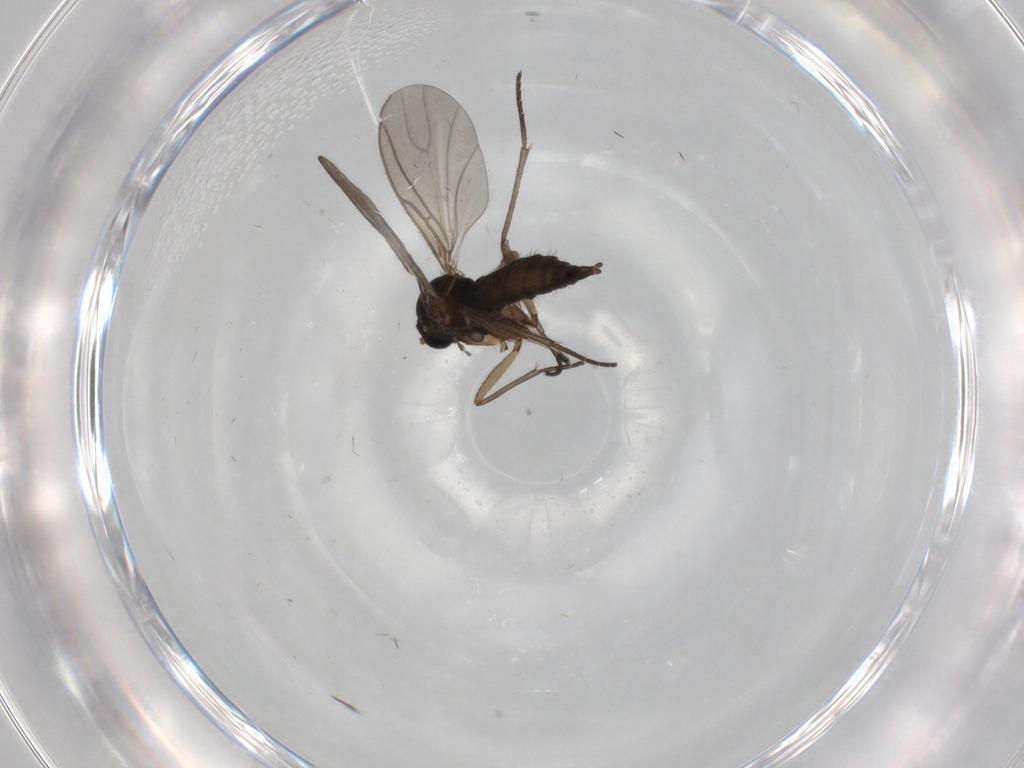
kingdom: Animalia
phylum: Arthropoda
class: Insecta
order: Diptera
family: Sciaridae
